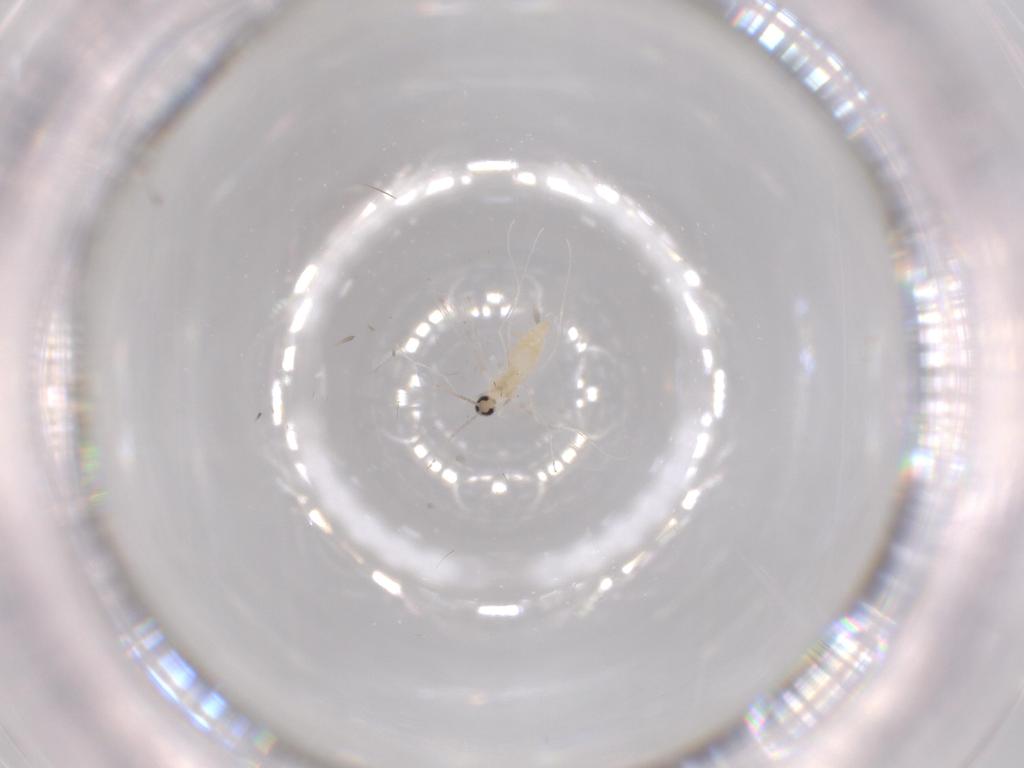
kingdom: Animalia
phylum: Arthropoda
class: Insecta
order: Diptera
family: Cecidomyiidae
